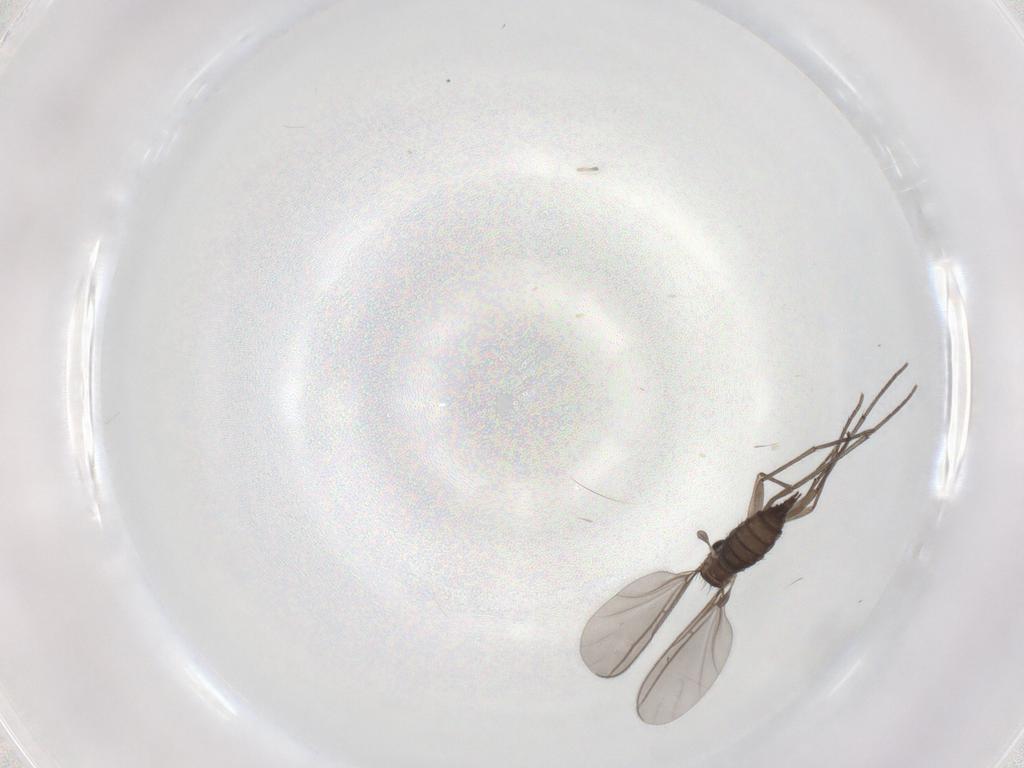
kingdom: Animalia
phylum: Arthropoda
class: Insecta
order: Diptera
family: Sciaridae
